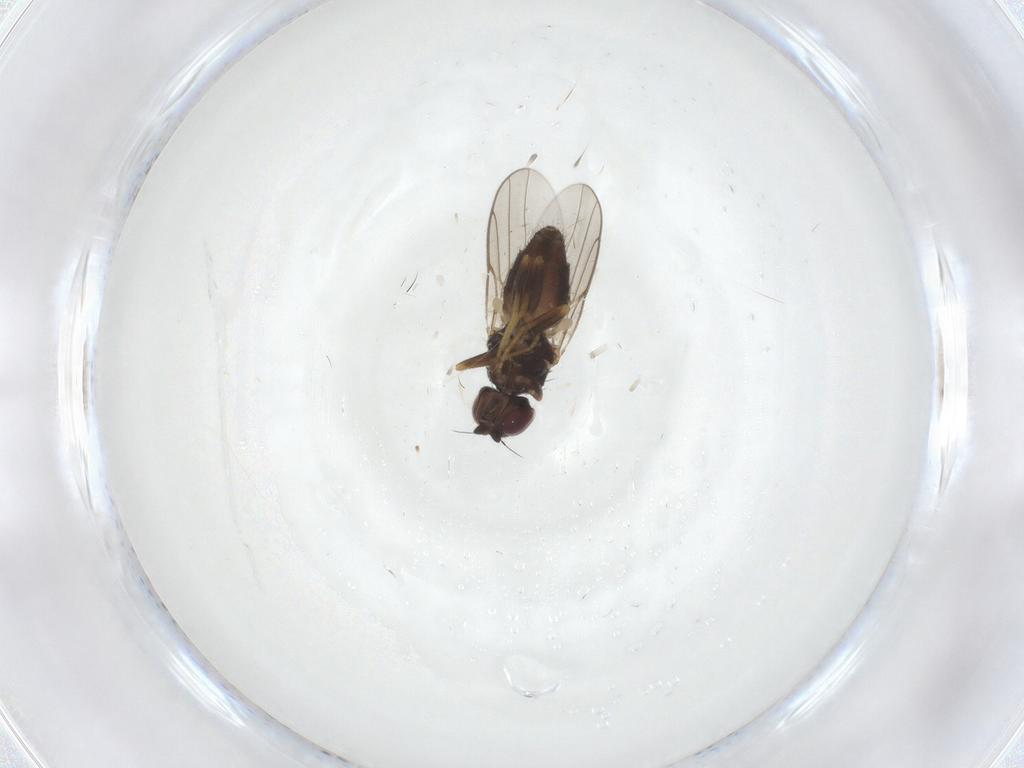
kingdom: Animalia
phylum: Arthropoda
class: Insecta
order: Diptera
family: Chloropidae
